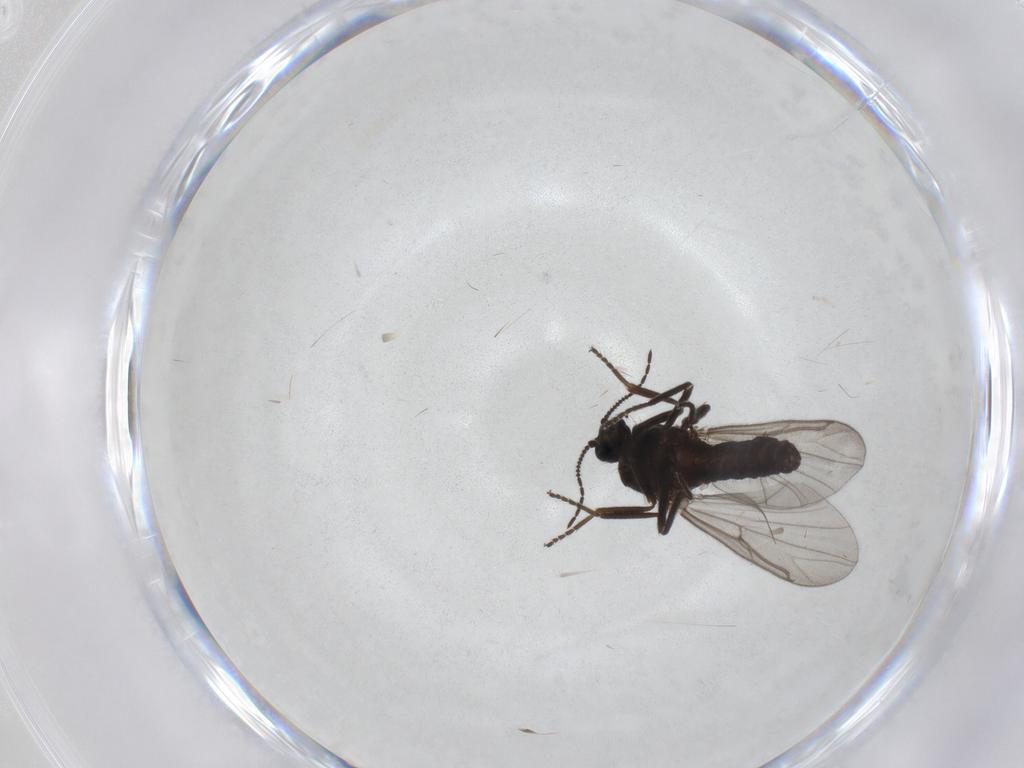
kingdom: Animalia
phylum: Arthropoda
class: Insecta
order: Diptera
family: Ceratopogonidae
